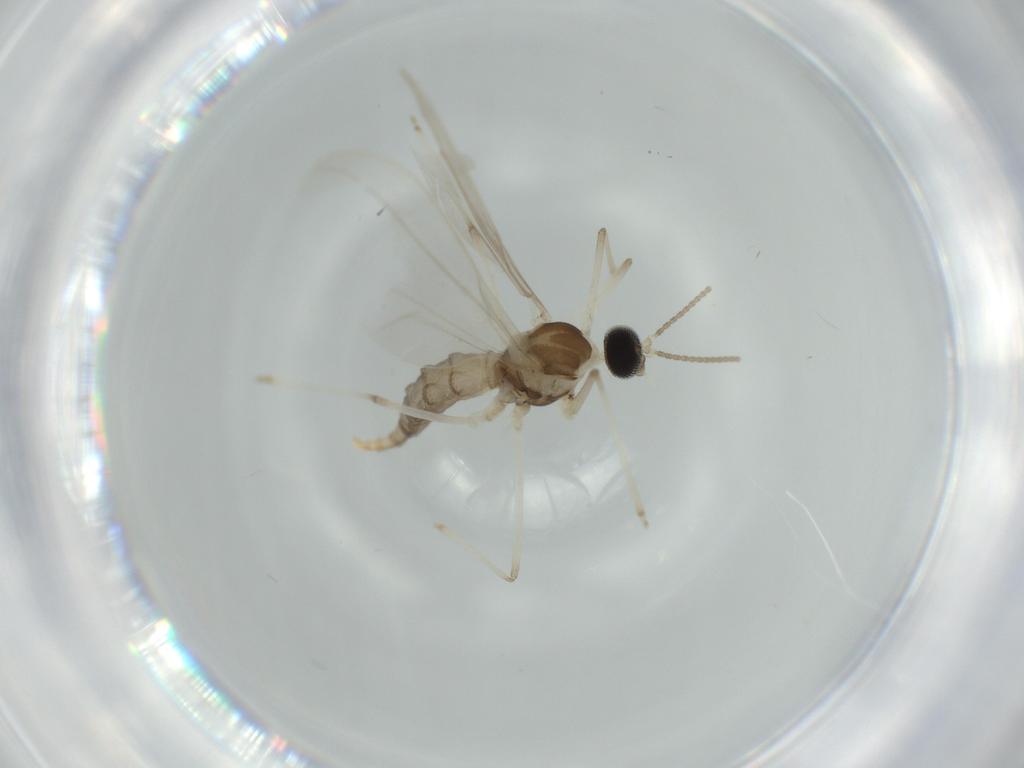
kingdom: Animalia
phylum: Arthropoda
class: Insecta
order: Diptera
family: Cecidomyiidae
